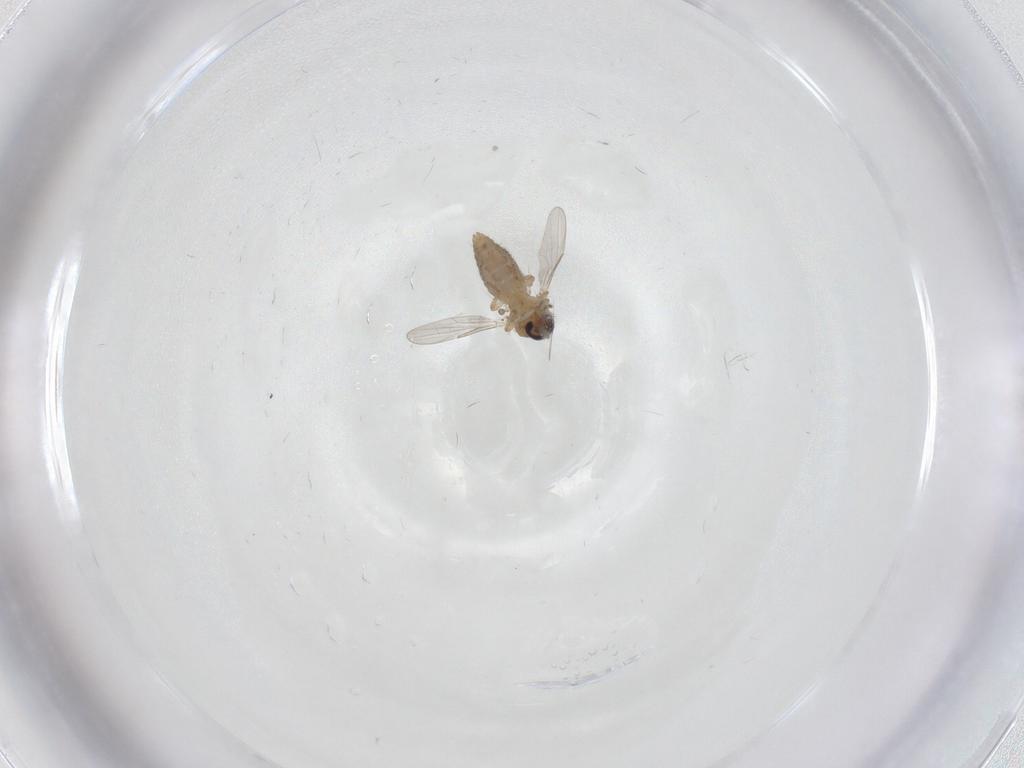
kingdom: Animalia
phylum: Arthropoda
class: Insecta
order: Diptera
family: Ceratopogonidae
